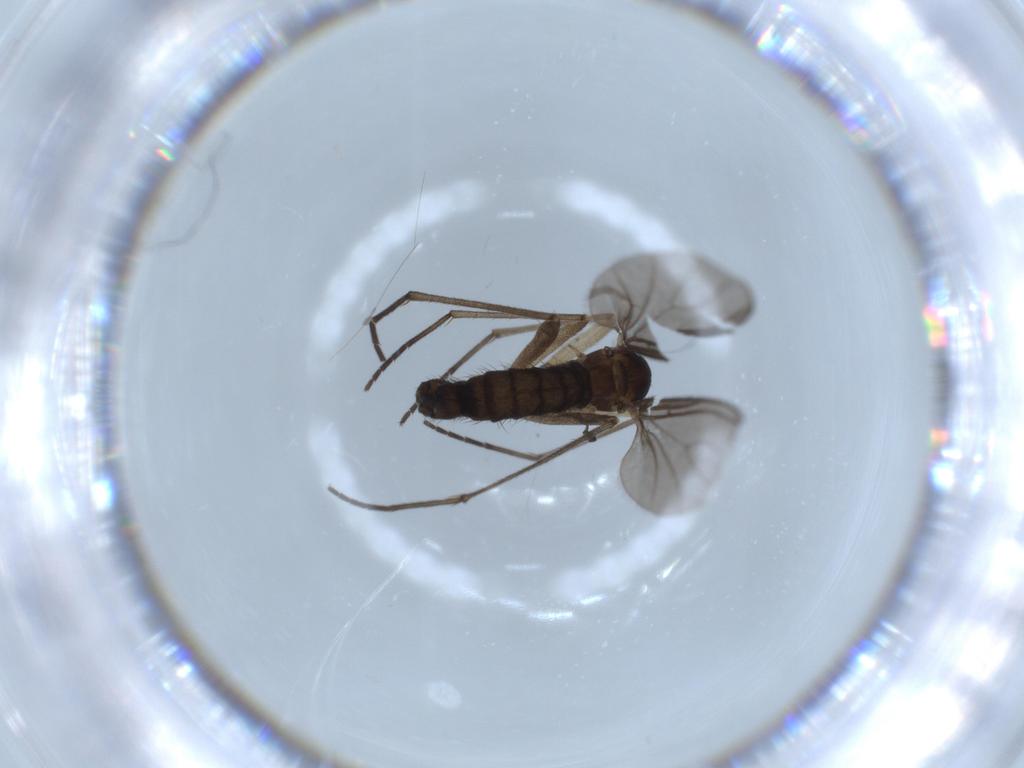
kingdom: Animalia
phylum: Arthropoda
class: Insecta
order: Diptera
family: Sciaridae
